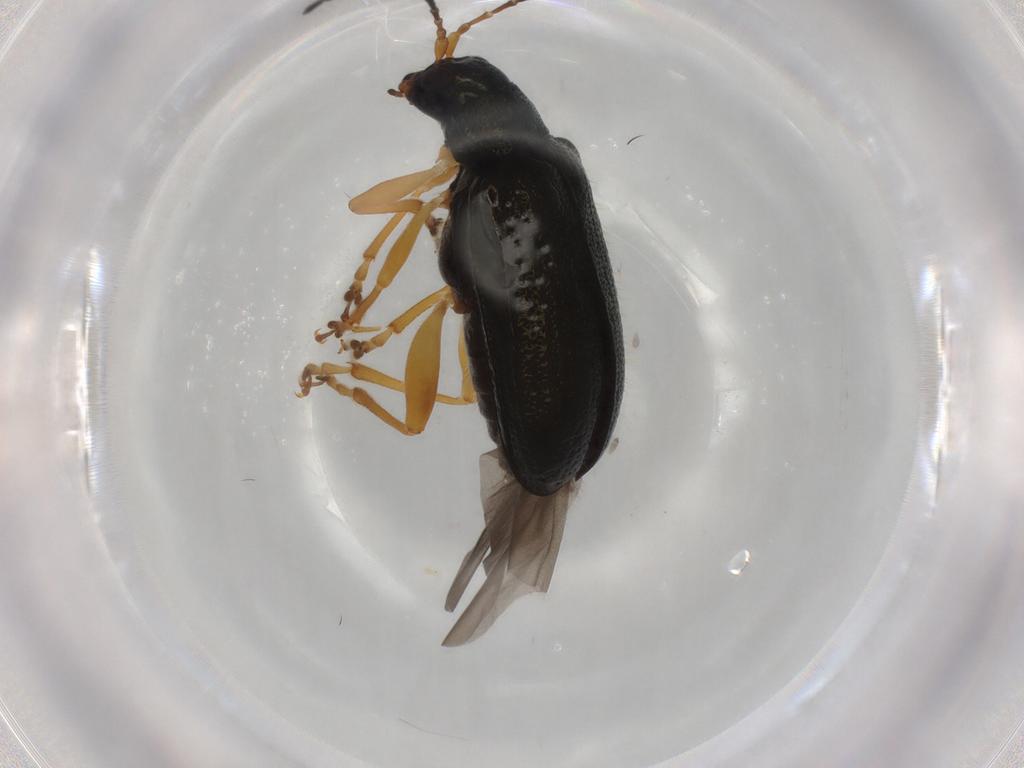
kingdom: Animalia
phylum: Arthropoda
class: Insecta
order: Coleoptera
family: Chrysomelidae
